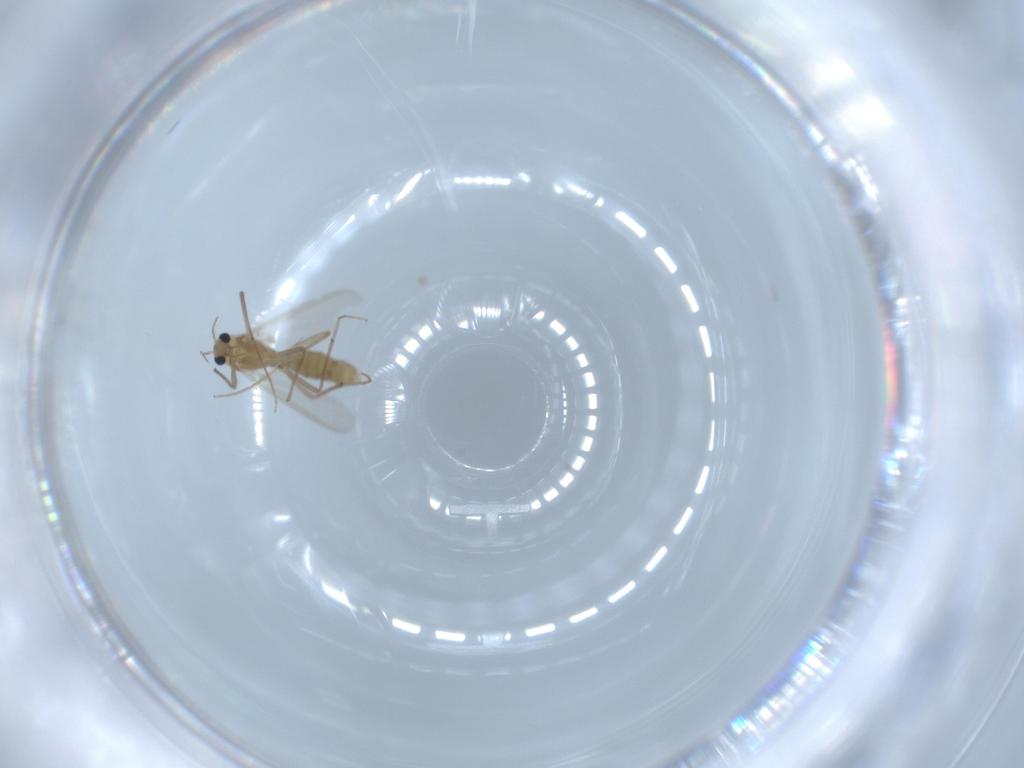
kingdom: Animalia
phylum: Arthropoda
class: Insecta
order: Diptera
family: Chironomidae
